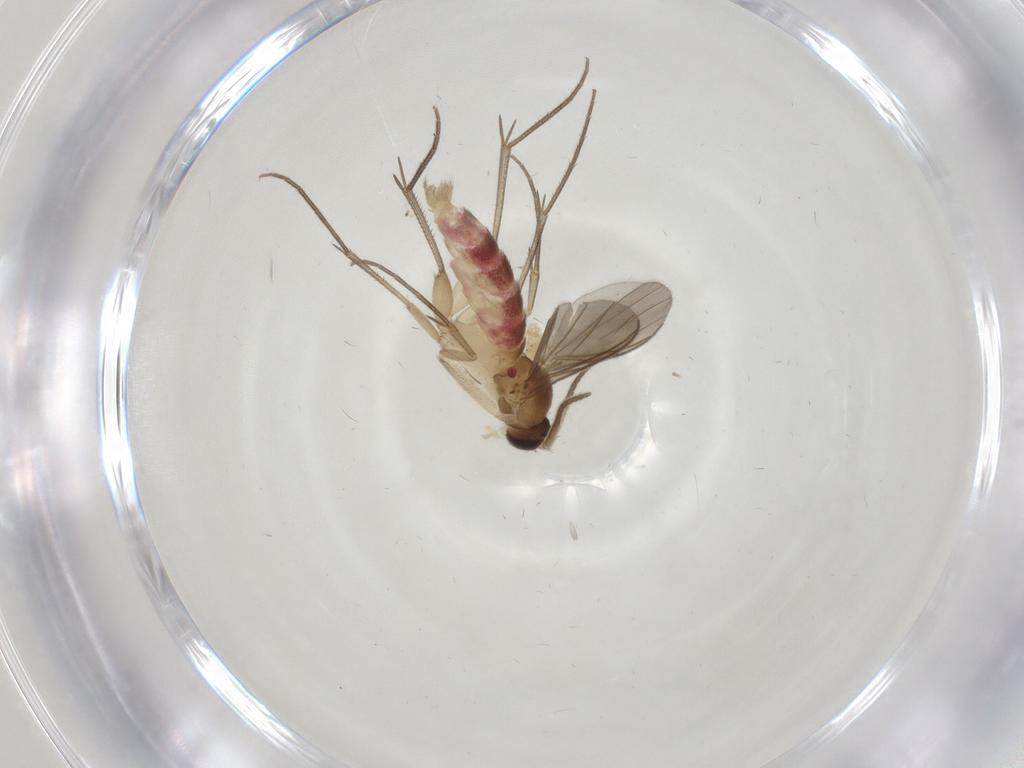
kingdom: Animalia
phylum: Arthropoda
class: Insecta
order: Diptera
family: Mycetophilidae
